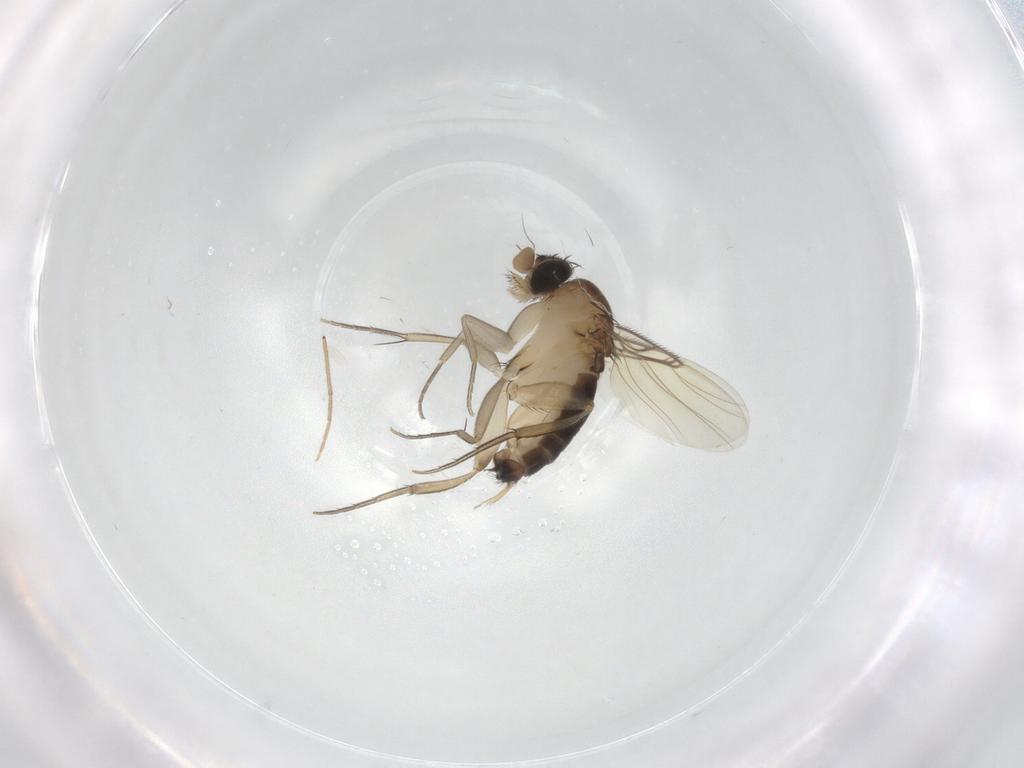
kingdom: Animalia
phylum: Arthropoda
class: Insecta
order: Diptera
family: Phoridae
